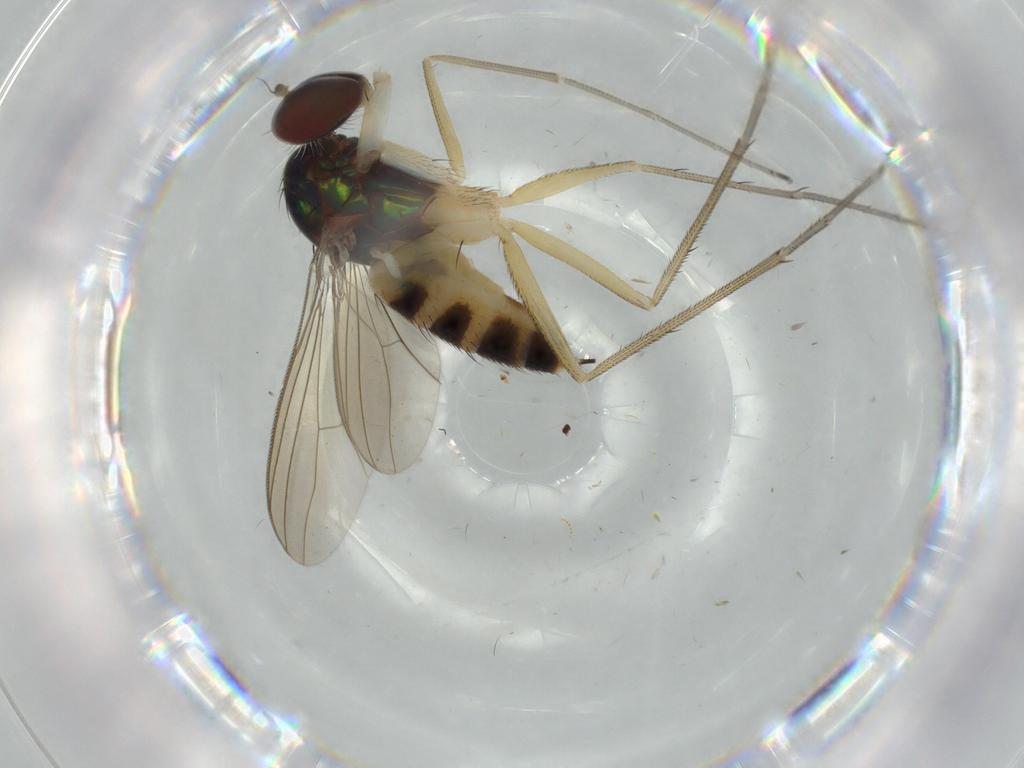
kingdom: Animalia
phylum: Arthropoda
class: Insecta
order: Diptera
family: Dolichopodidae
